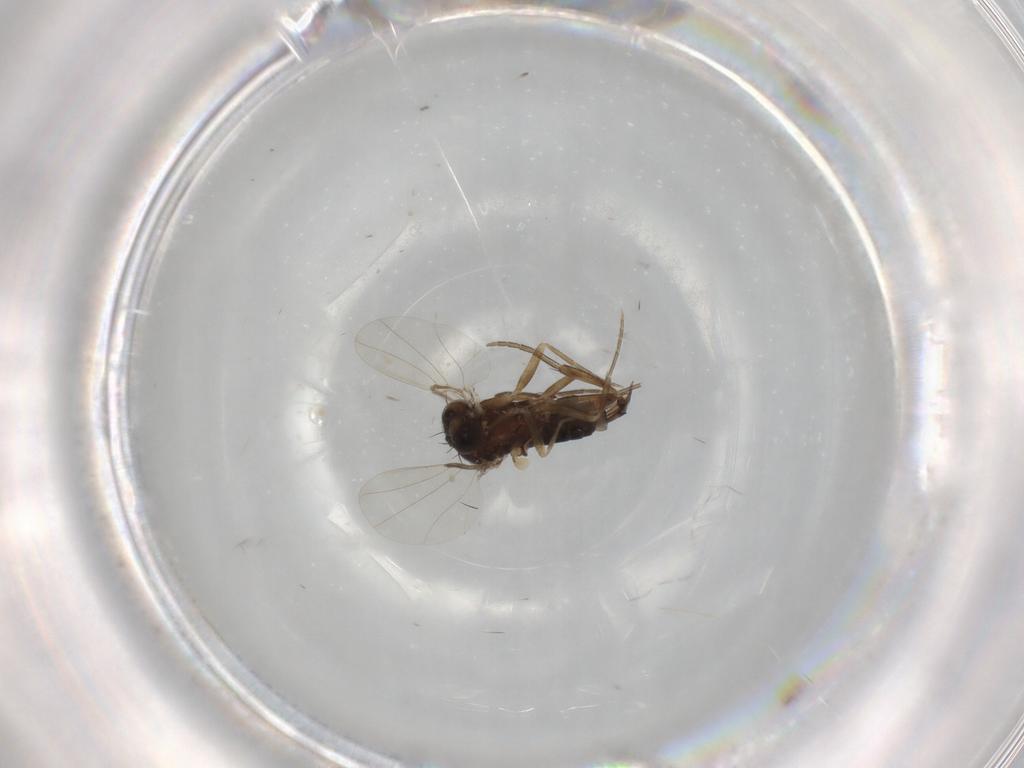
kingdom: Animalia
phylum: Arthropoda
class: Insecta
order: Diptera
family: Phoridae
